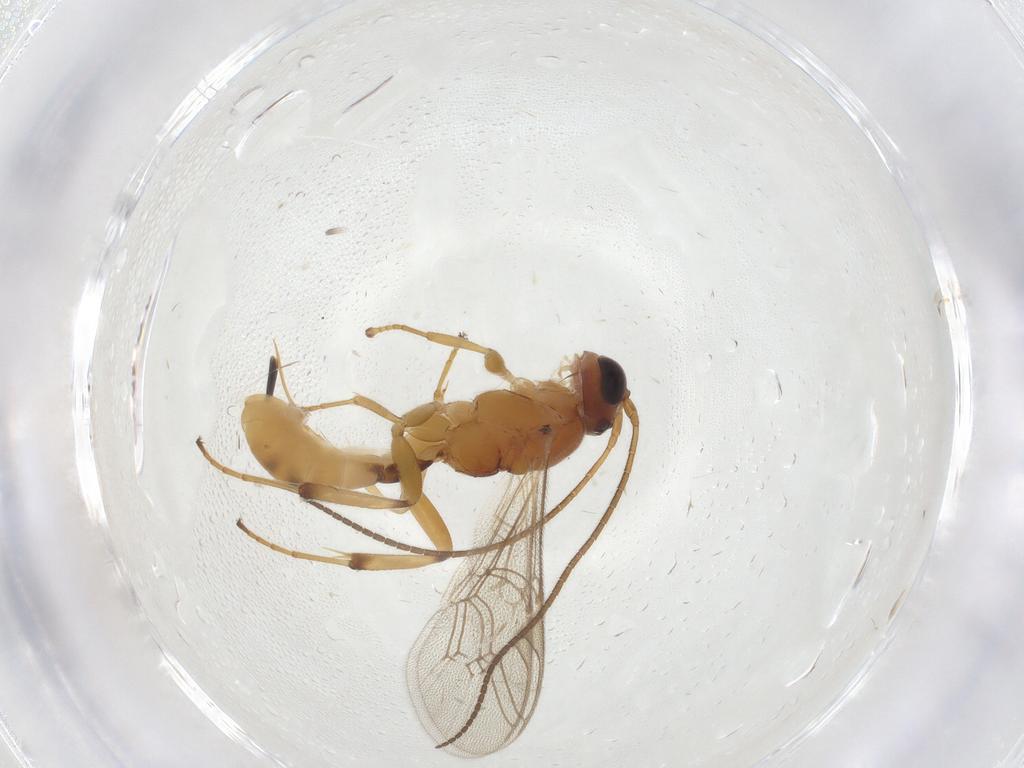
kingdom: Animalia
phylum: Arthropoda
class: Insecta
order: Hymenoptera
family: Ichneumonidae
